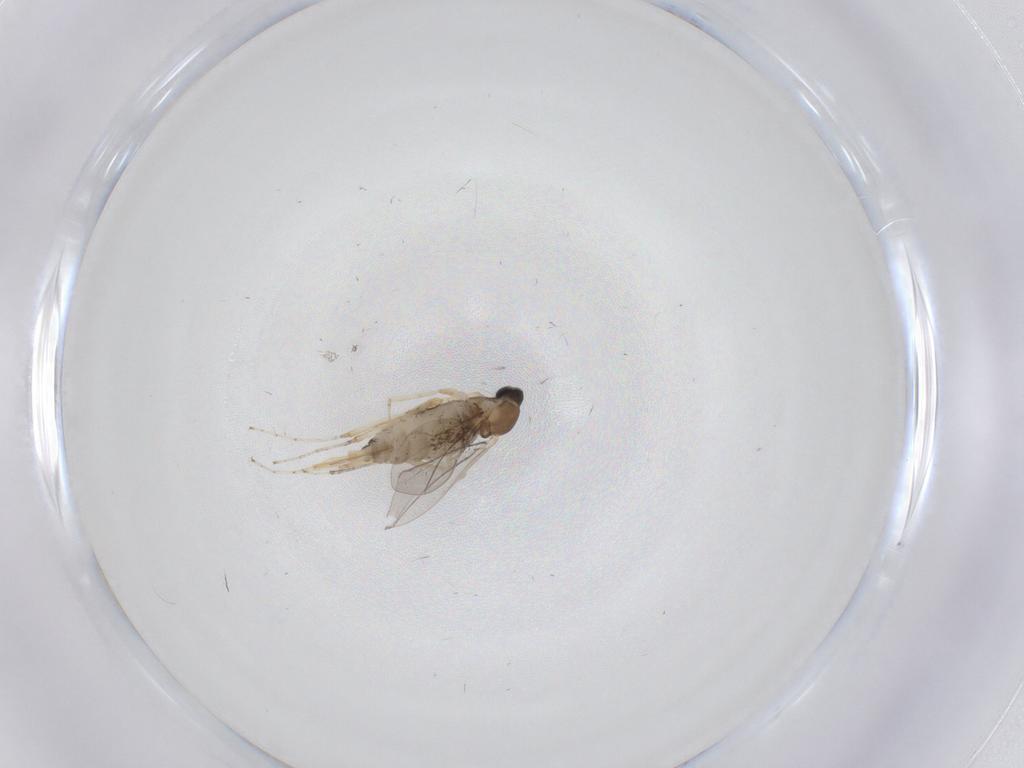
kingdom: Animalia
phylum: Arthropoda
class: Insecta
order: Diptera
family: Cecidomyiidae
